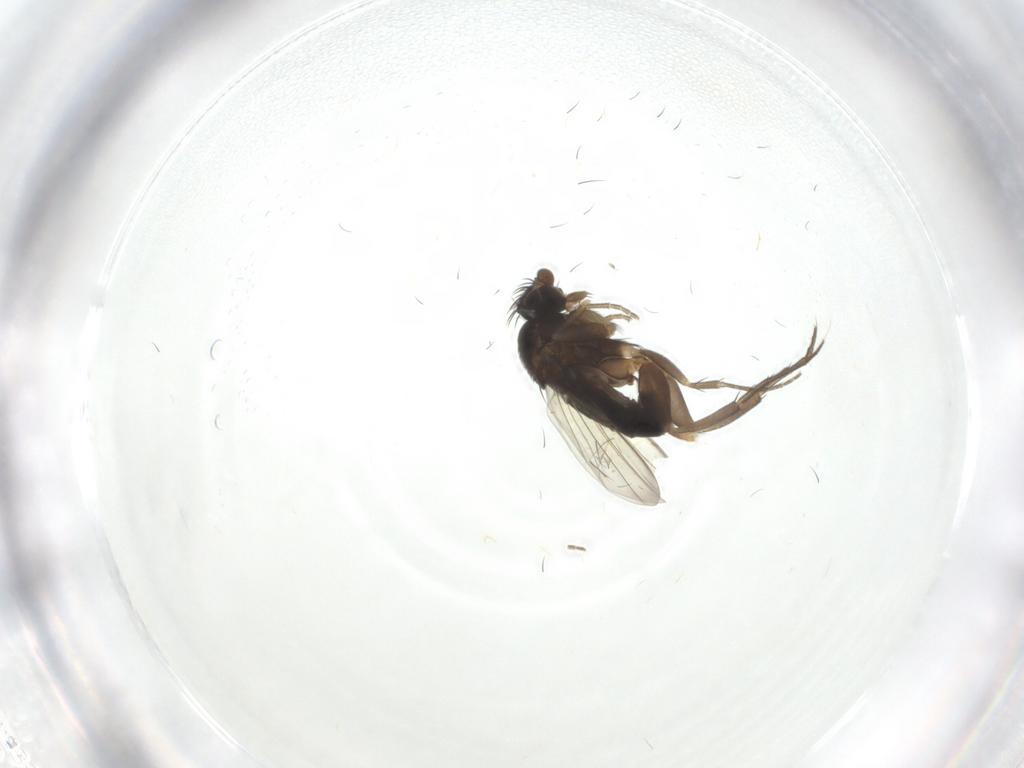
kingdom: Animalia
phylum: Arthropoda
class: Insecta
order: Diptera
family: Phoridae
